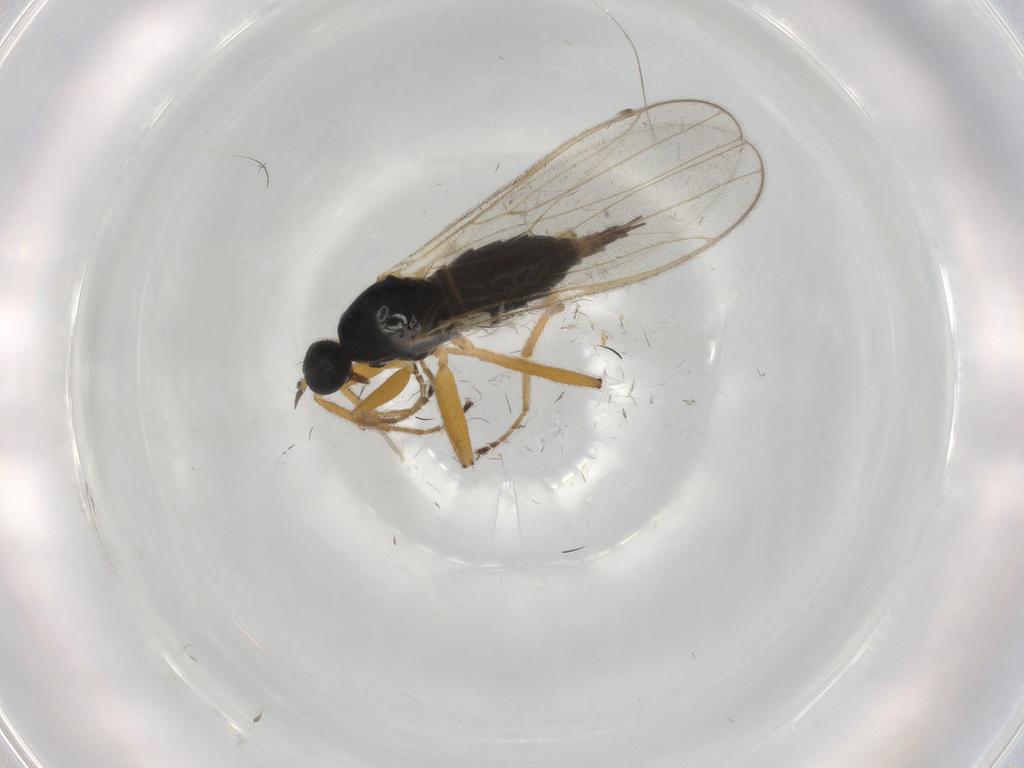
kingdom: Animalia
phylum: Arthropoda
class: Insecta
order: Diptera
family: Hybotidae
